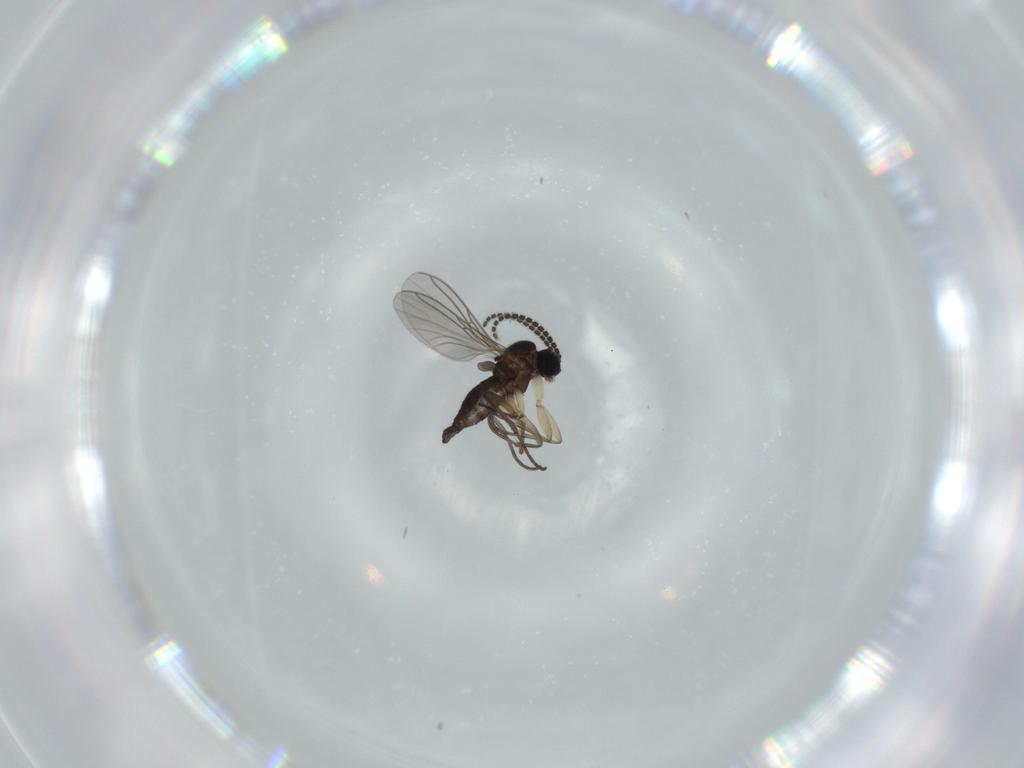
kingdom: Animalia
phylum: Arthropoda
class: Insecta
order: Diptera
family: Sciaridae
